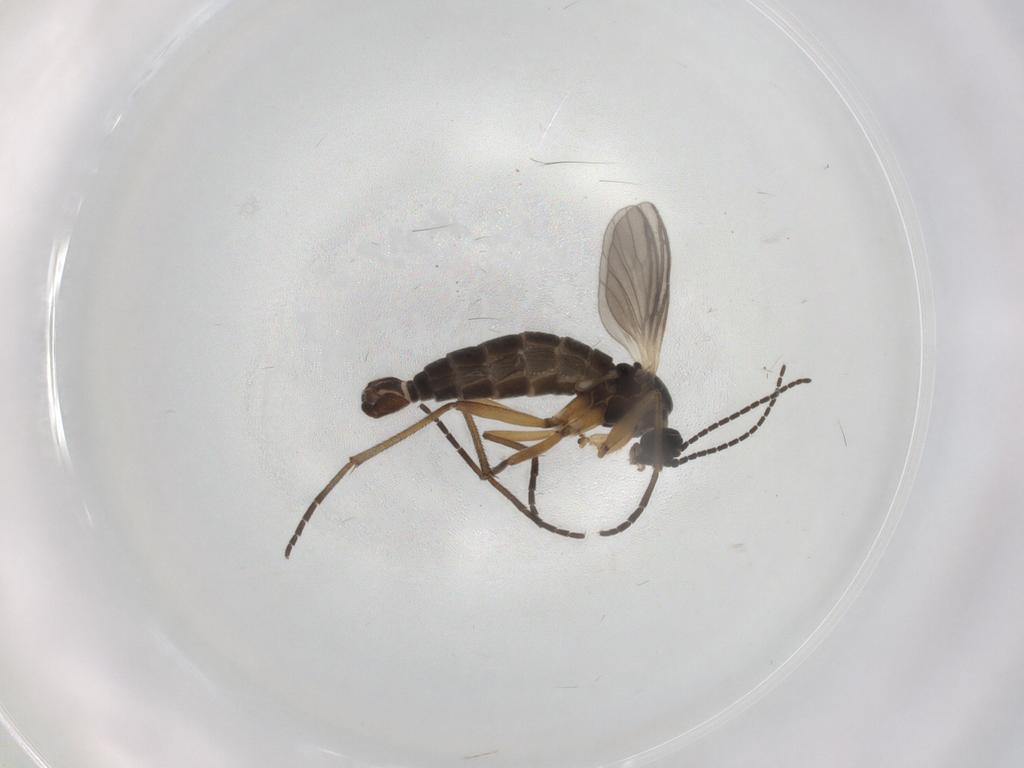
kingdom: Animalia
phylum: Arthropoda
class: Insecta
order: Diptera
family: Sciaridae
